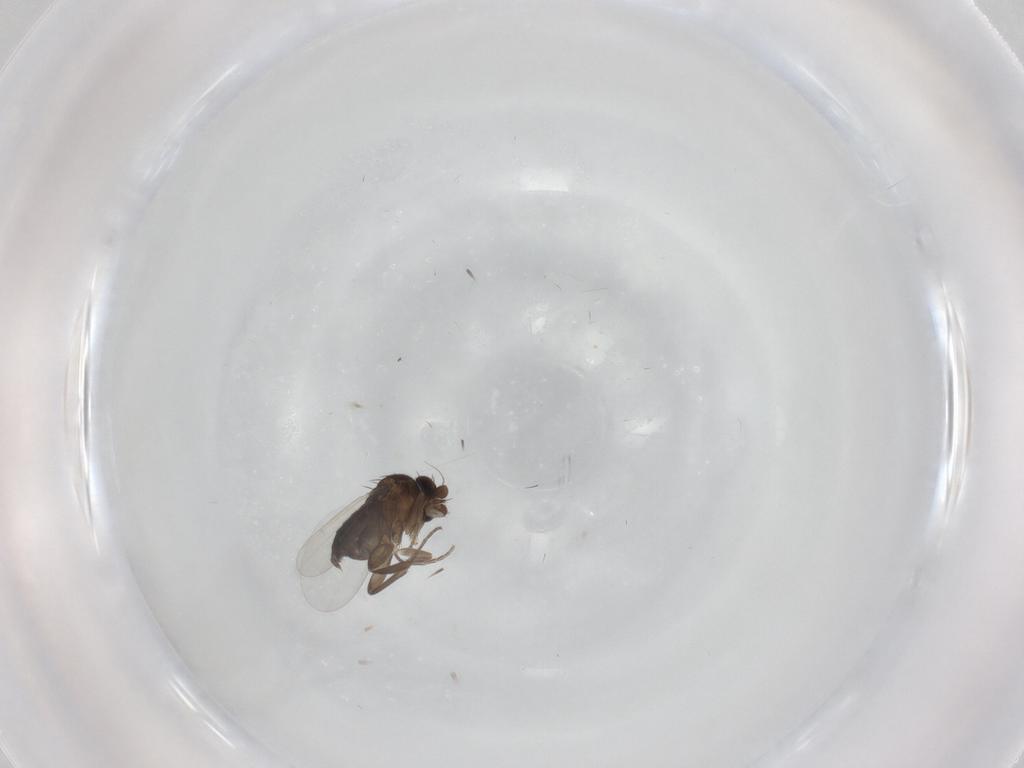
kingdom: Animalia
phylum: Arthropoda
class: Insecta
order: Diptera
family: Phoridae
